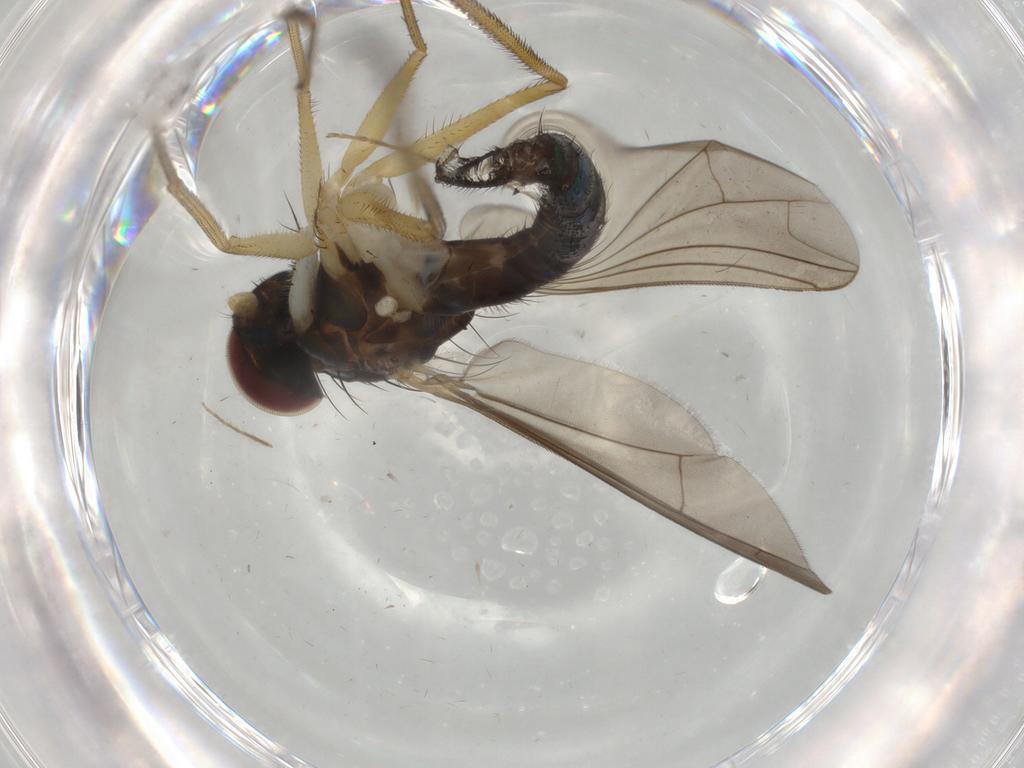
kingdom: Animalia
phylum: Arthropoda
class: Insecta
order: Diptera
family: Dolichopodidae
